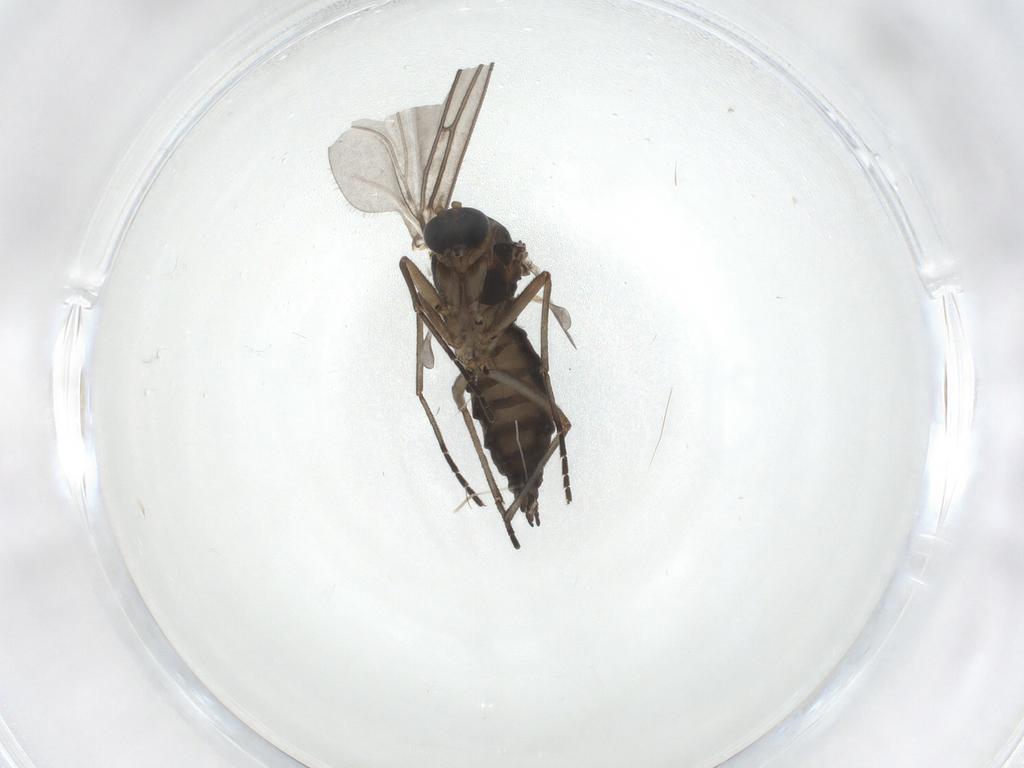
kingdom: Animalia
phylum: Arthropoda
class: Insecta
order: Diptera
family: Sciaridae
